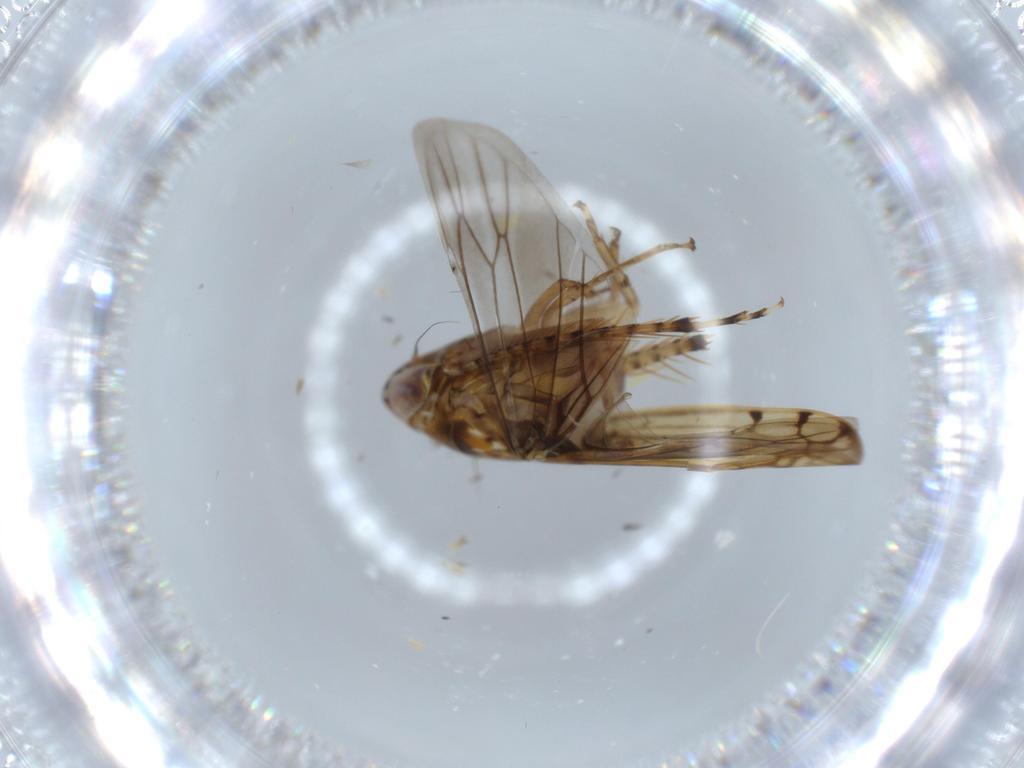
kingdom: Animalia
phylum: Arthropoda
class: Insecta
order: Hemiptera
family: Cicadellidae
